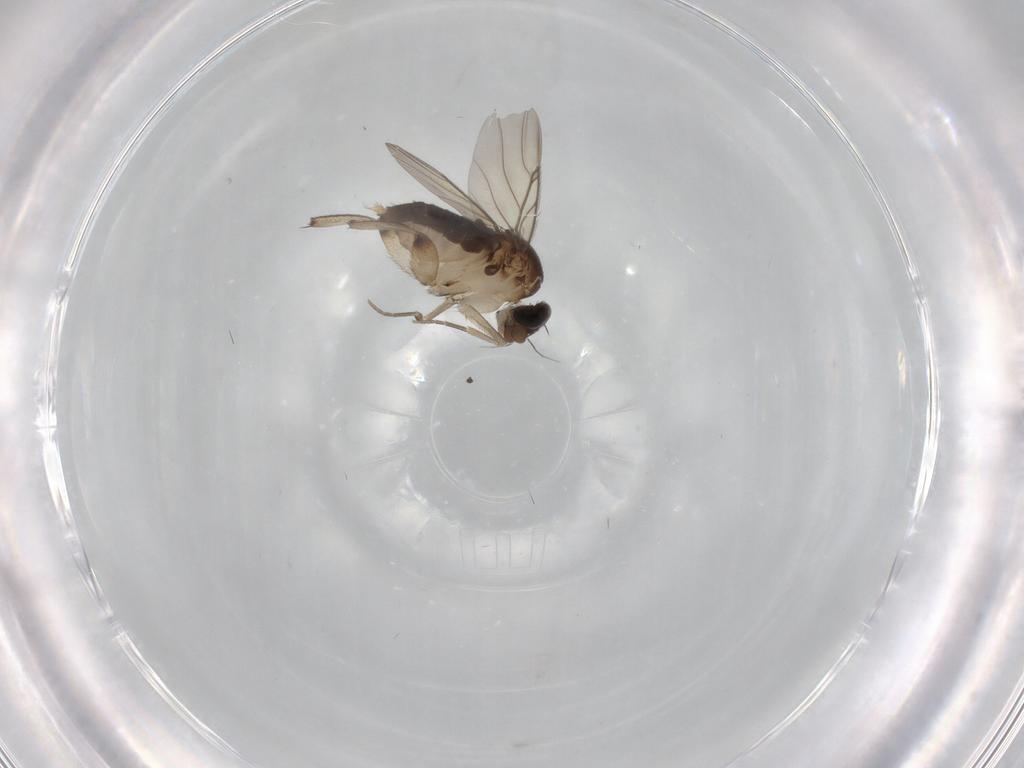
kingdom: Animalia
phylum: Arthropoda
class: Insecta
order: Diptera
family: Phoridae
